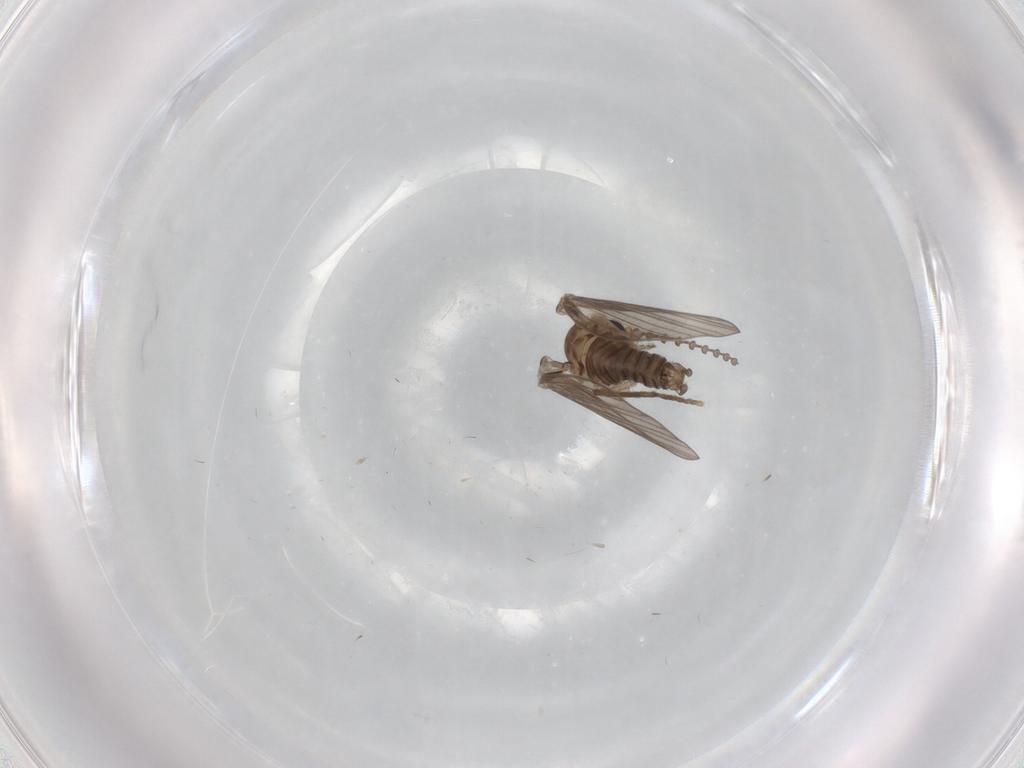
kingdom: Animalia
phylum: Arthropoda
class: Insecta
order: Diptera
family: Psychodidae
